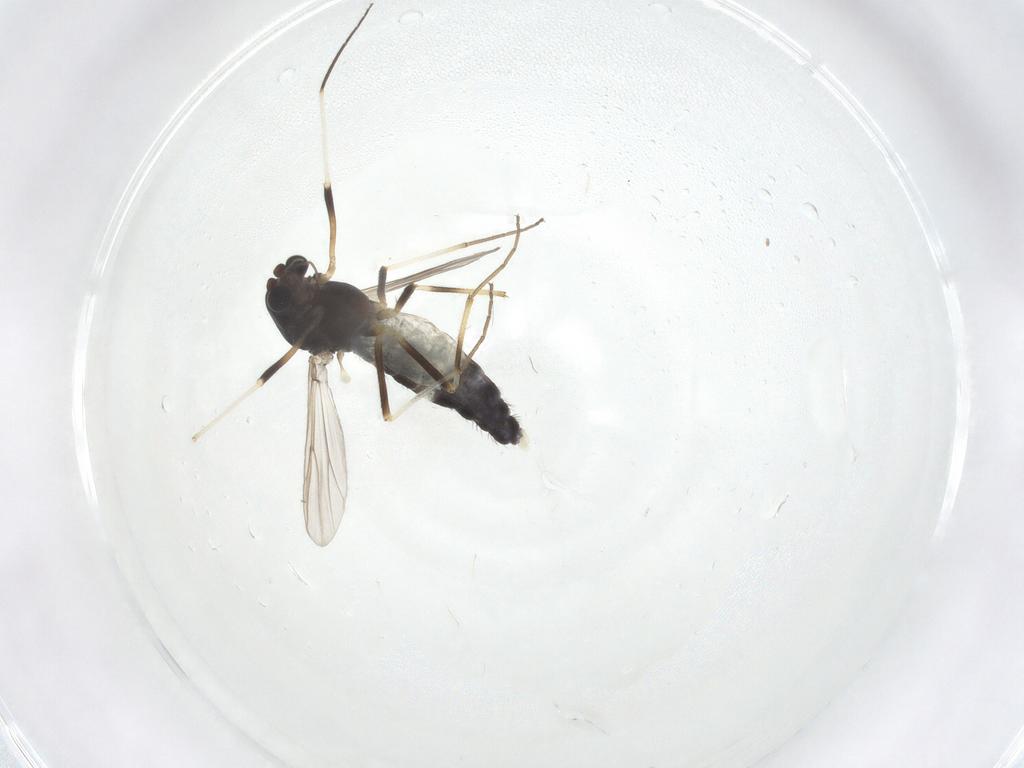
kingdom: Animalia
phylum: Arthropoda
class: Insecta
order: Diptera
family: Chironomidae
